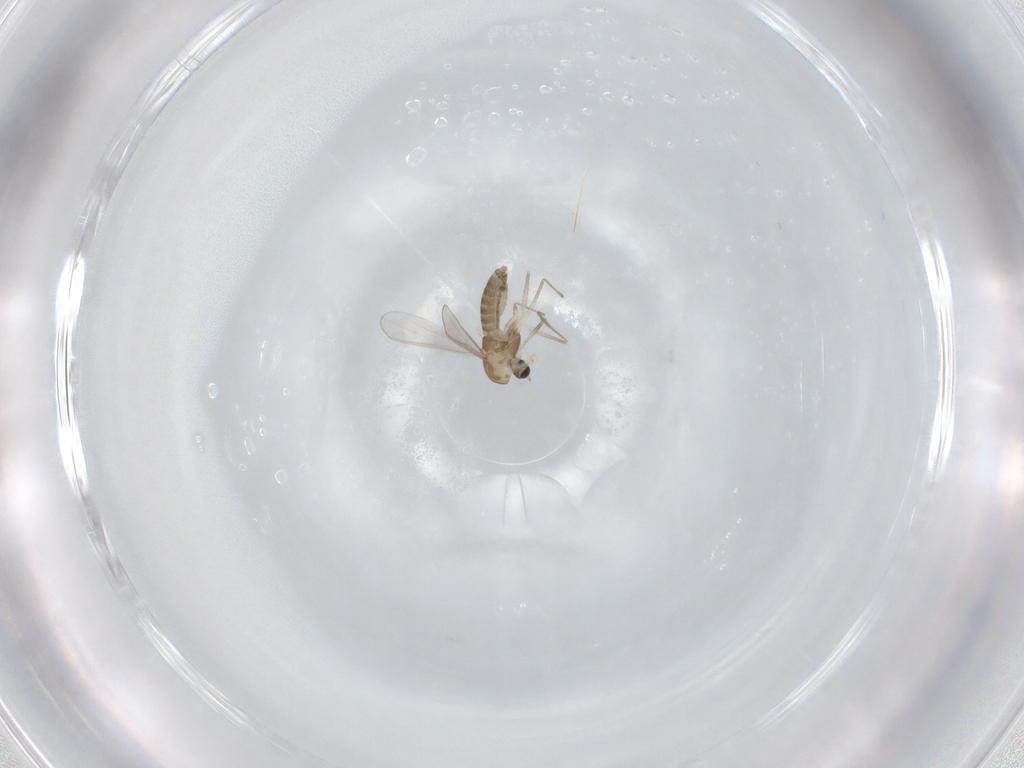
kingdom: Animalia
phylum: Arthropoda
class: Insecta
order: Diptera
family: Chironomidae
